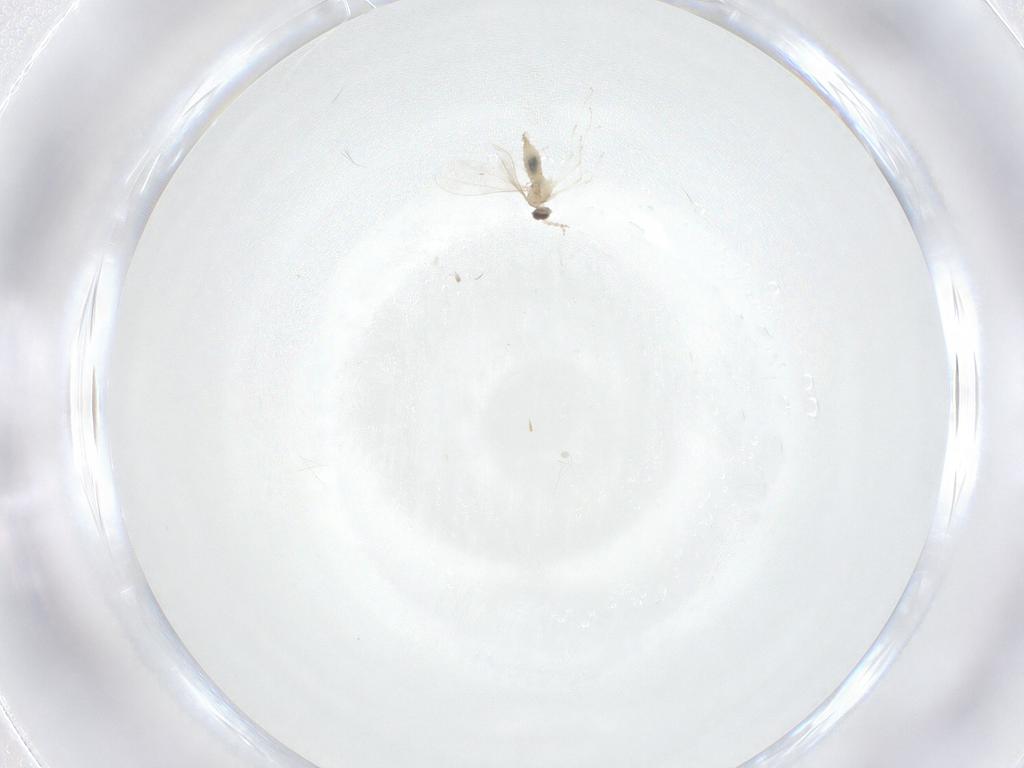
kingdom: Animalia
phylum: Arthropoda
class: Insecta
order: Diptera
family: Cecidomyiidae
